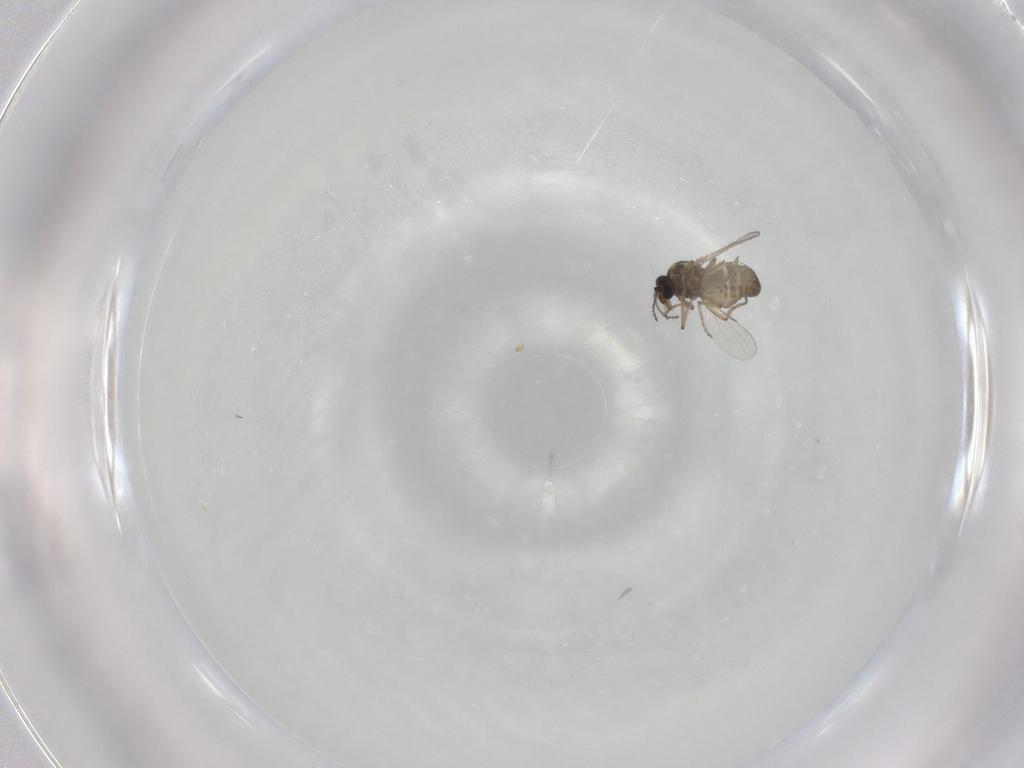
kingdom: Animalia
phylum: Arthropoda
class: Insecta
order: Diptera
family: Ceratopogonidae
